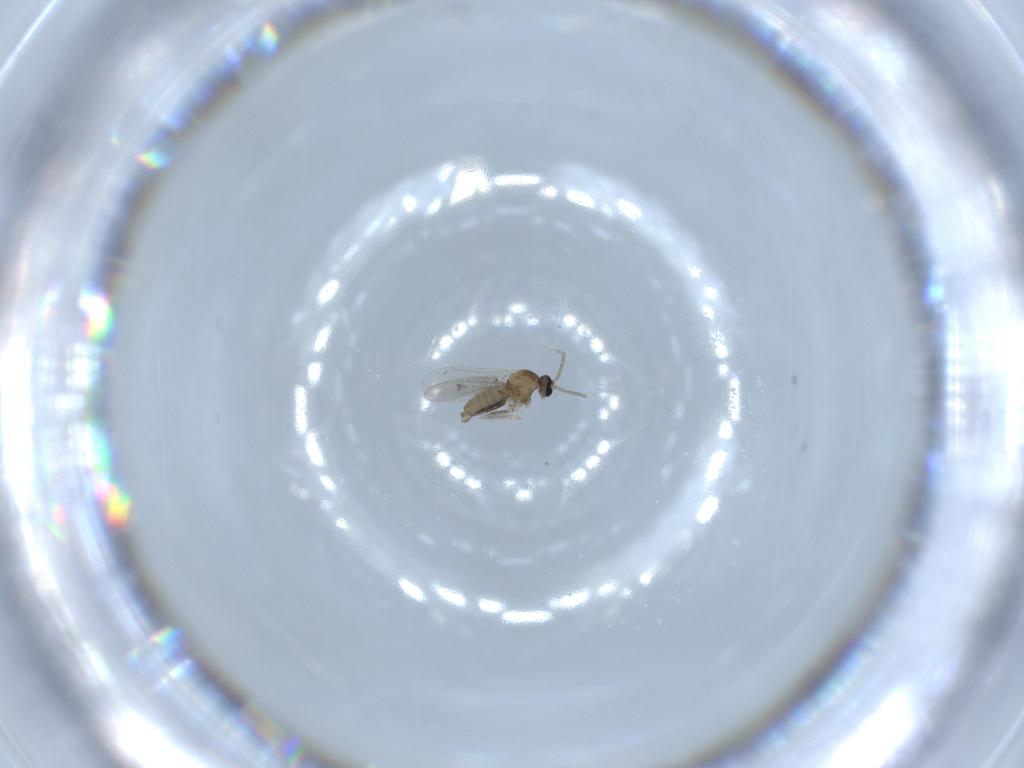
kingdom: Animalia
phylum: Arthropoda
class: Insecta
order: Diptera
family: Cecidomyiidae
